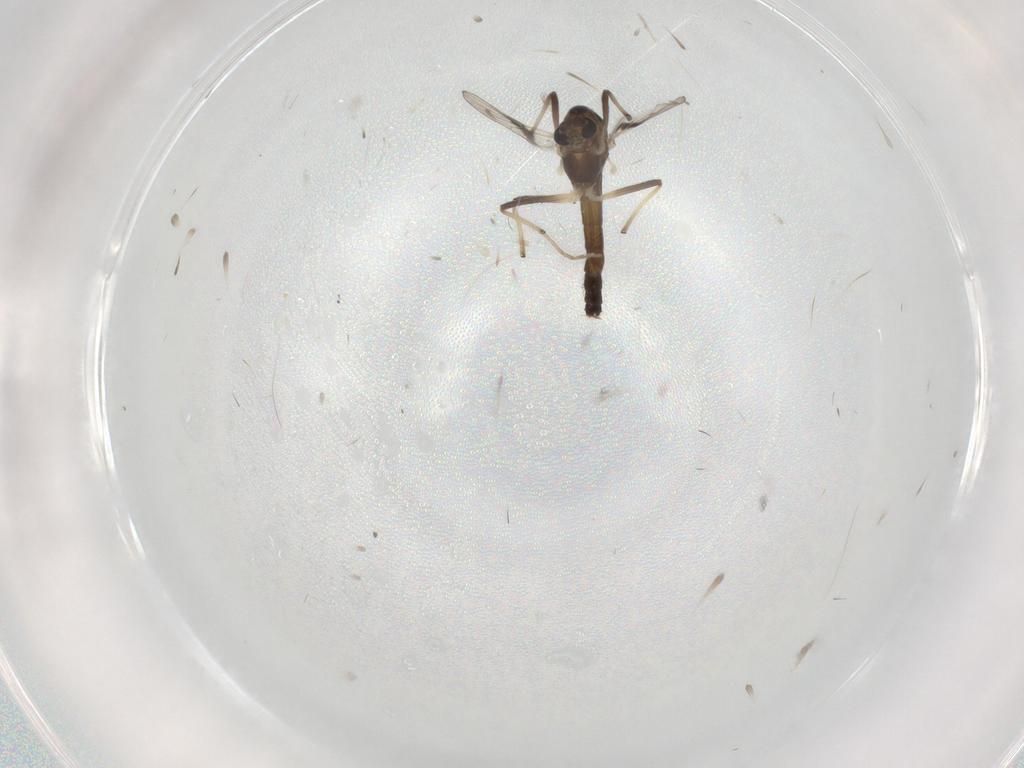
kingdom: Animalia
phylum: Arthropoda
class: Insecta
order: Diptera
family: Chironomidae
